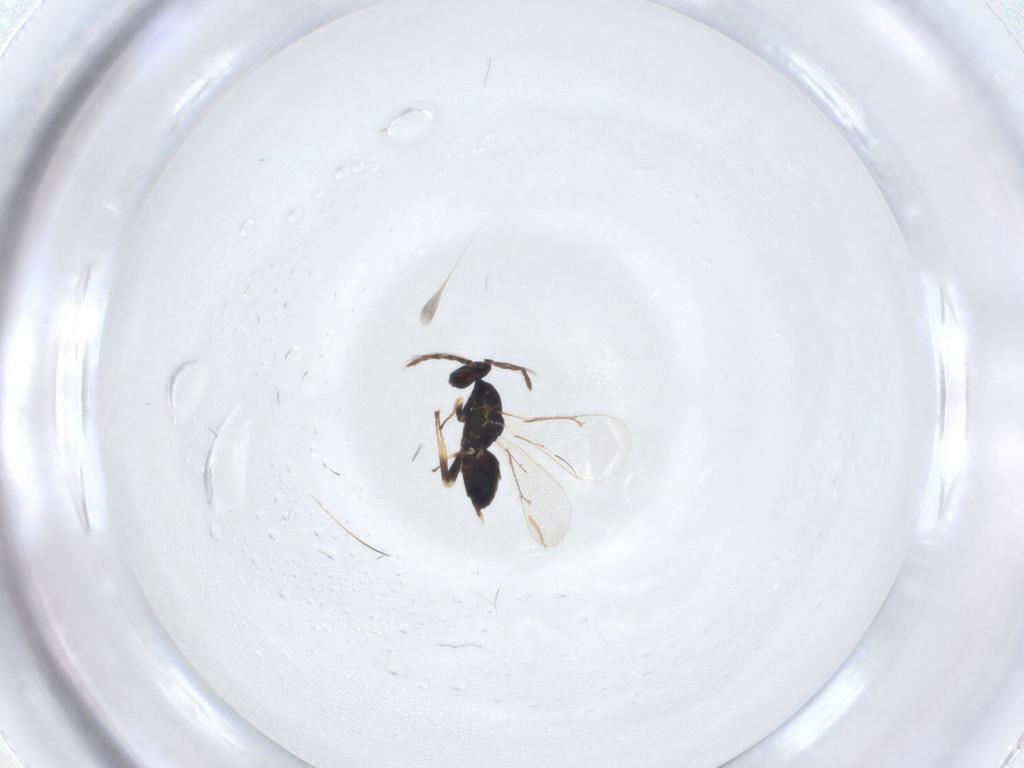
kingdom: Animalia
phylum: Arthropoda
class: Insecta
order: Hymenoptera
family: Eulophidae
